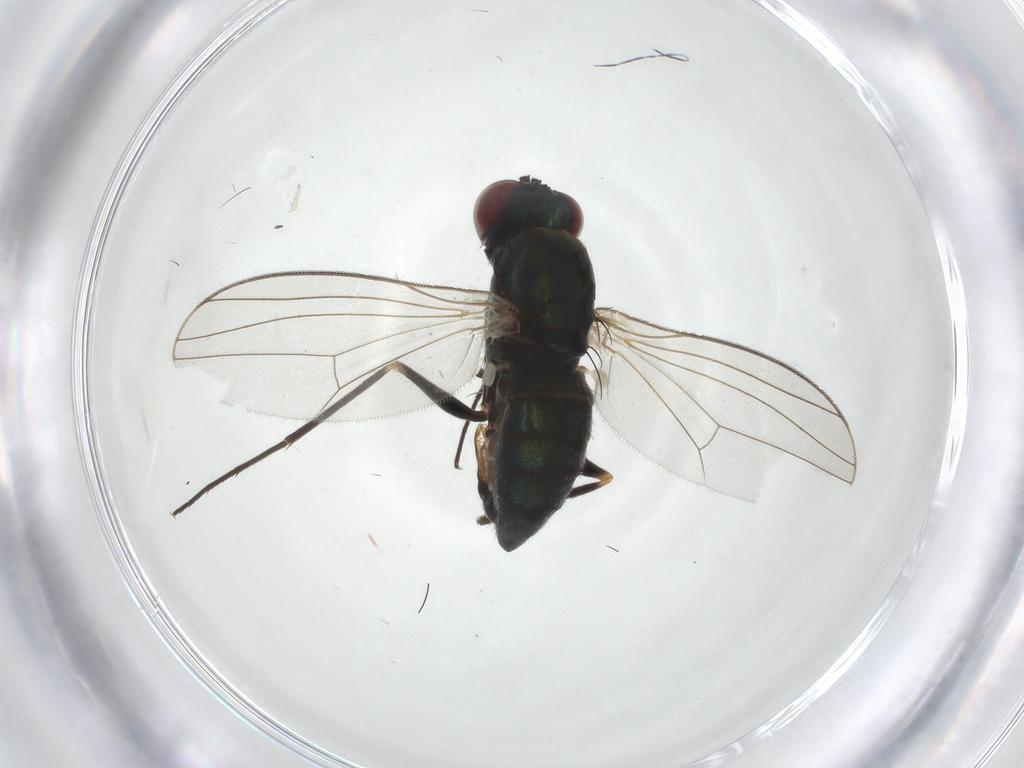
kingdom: Animalia
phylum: Arthropoda
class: Insecta
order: Diptera
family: Dolichopodidae
